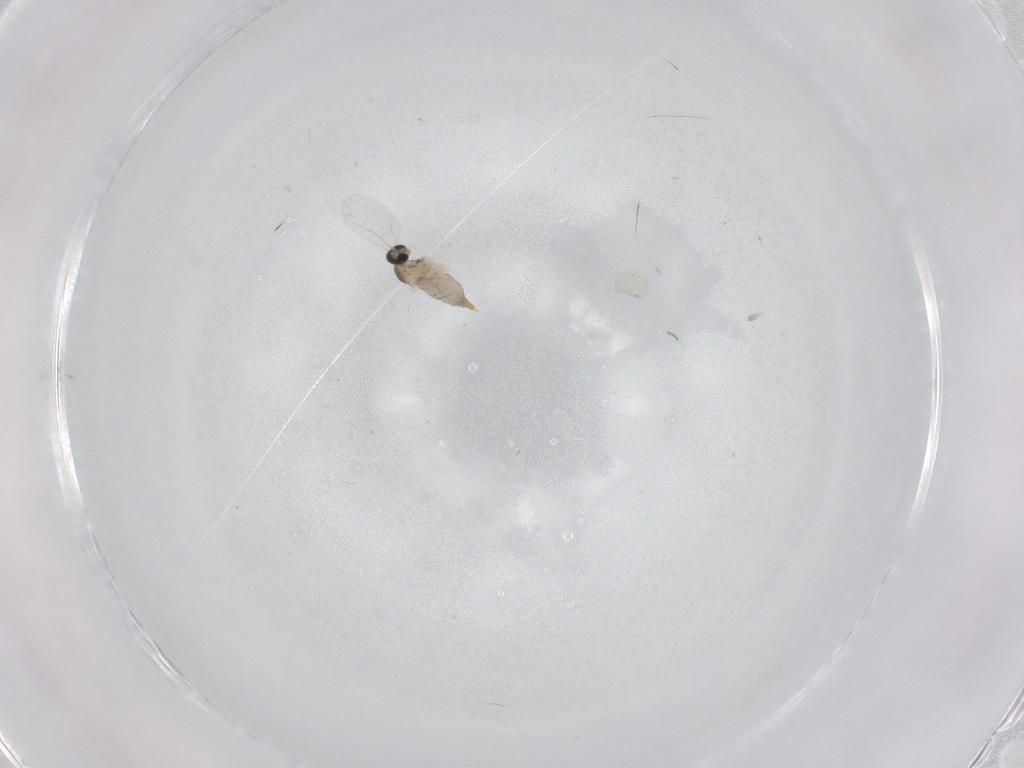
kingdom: Animalia
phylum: Arthropoda
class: Insecta
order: Diptera
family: Cecidomyiidae
